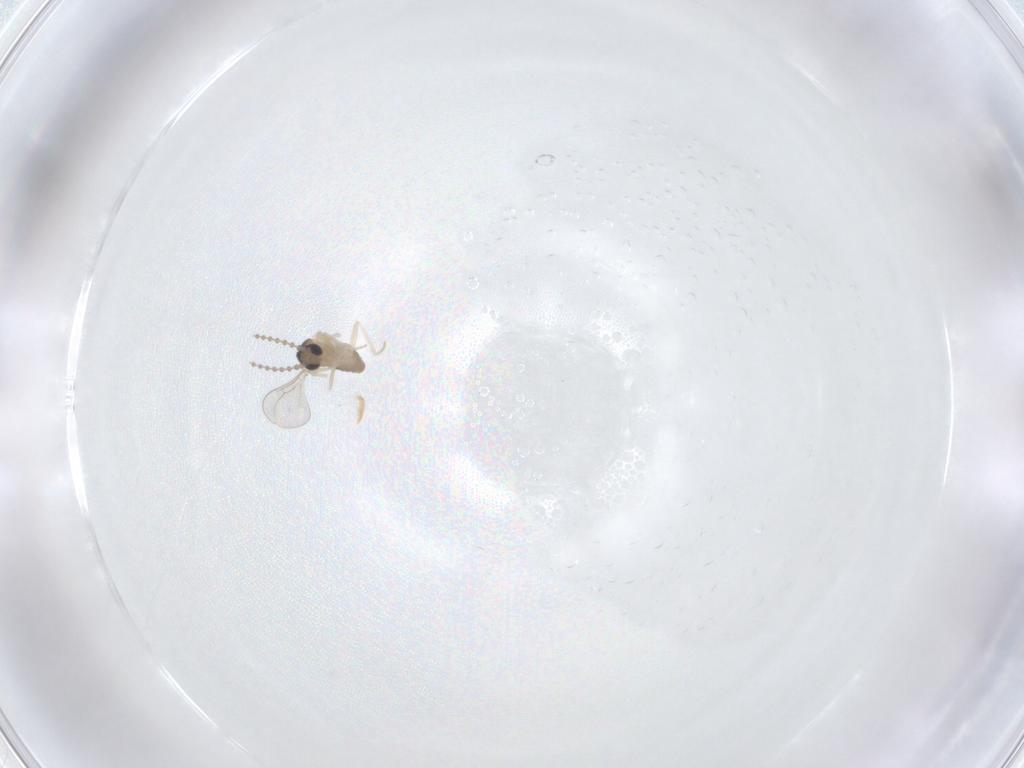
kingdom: Animalia
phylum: Arthropoda
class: Insecta
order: Diptera
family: Cecidomyiidae
